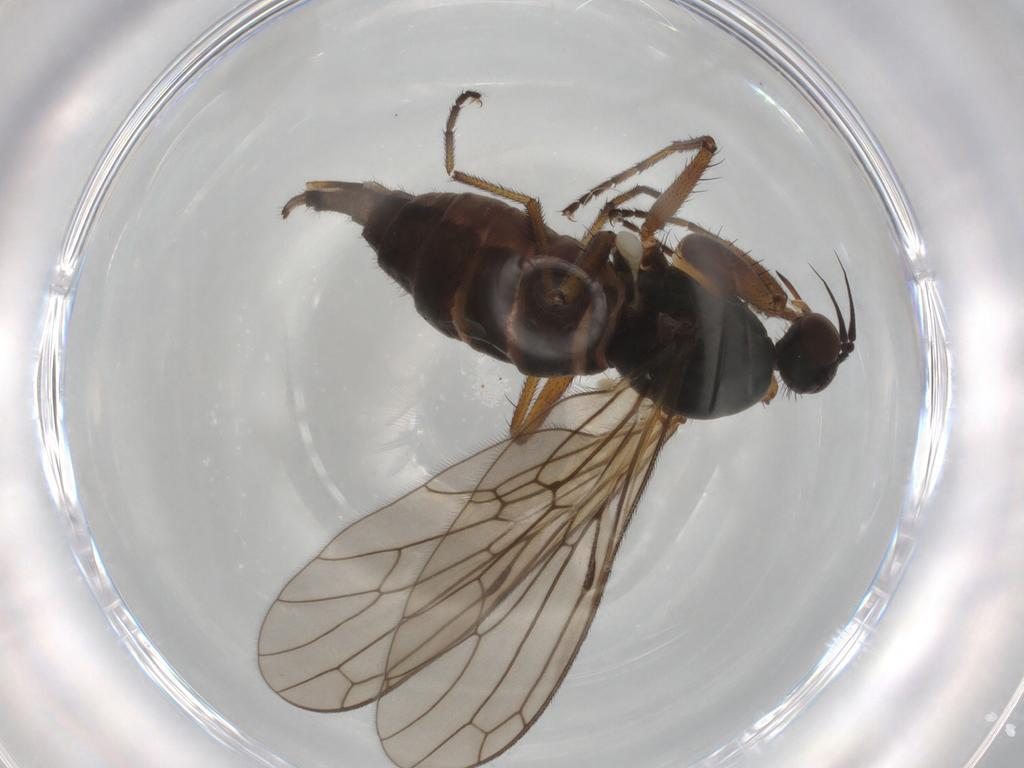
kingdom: Animalia
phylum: Arthropoda
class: Insecta
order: Diptera
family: Empididae
